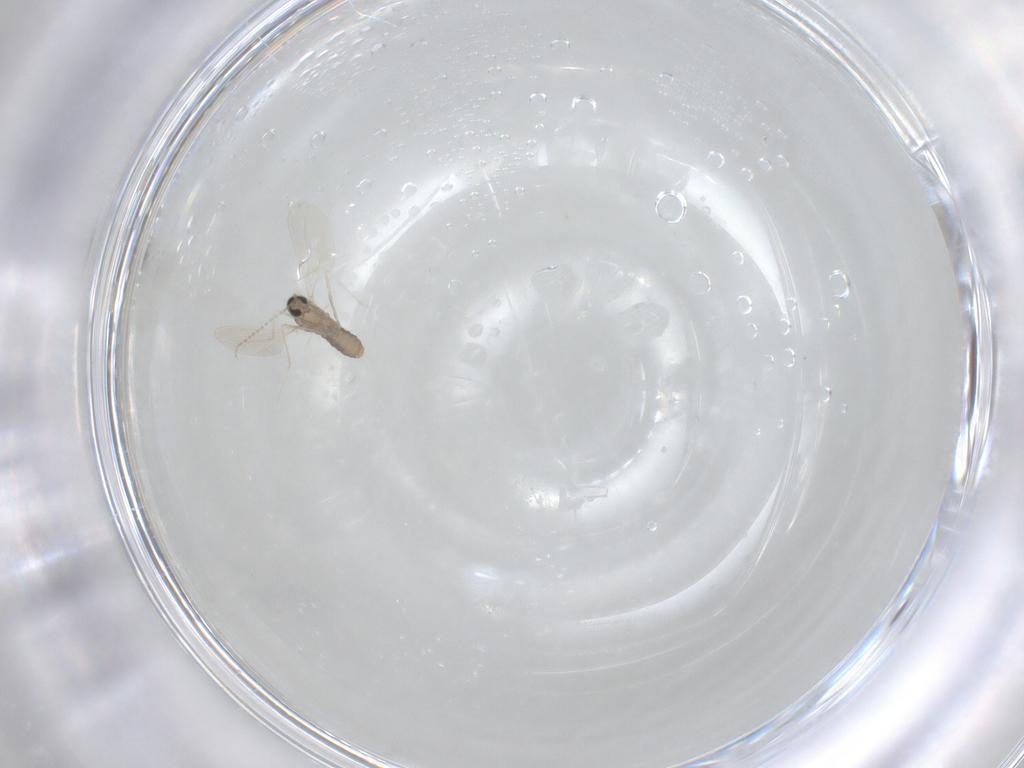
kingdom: Animalia
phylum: Arthropoda
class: Insecta
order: Diptera
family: Cecidomyiidae
